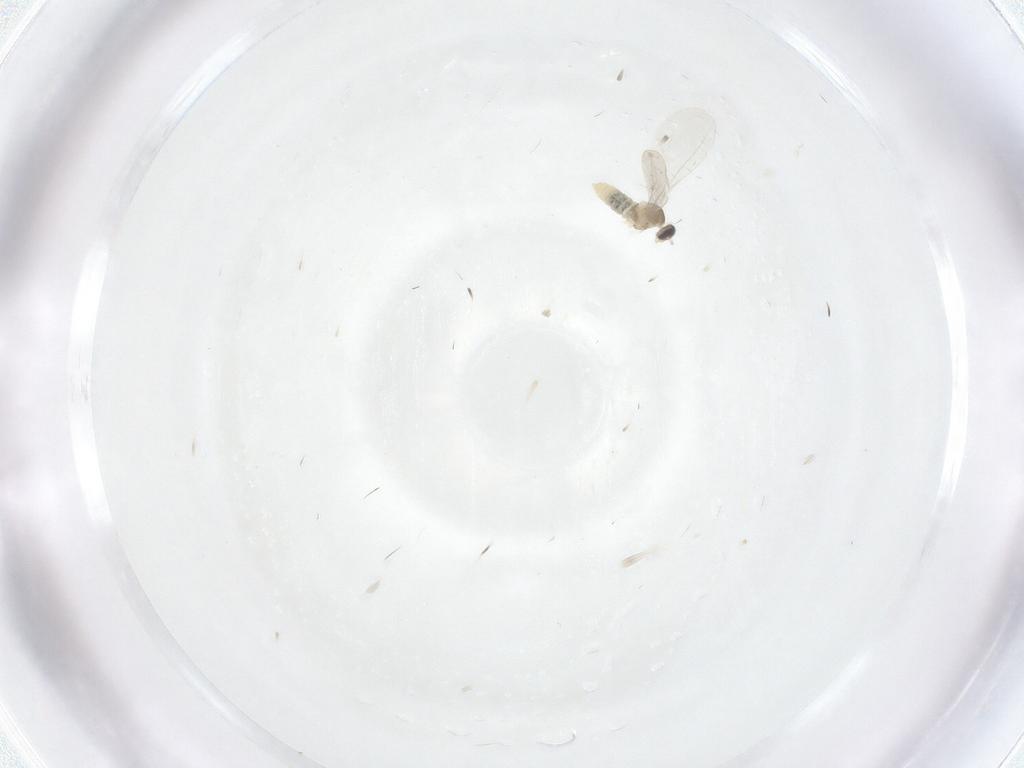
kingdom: Animalia
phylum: Arthropoda
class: Insecta
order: Diptera
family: Cecidomyiidae
